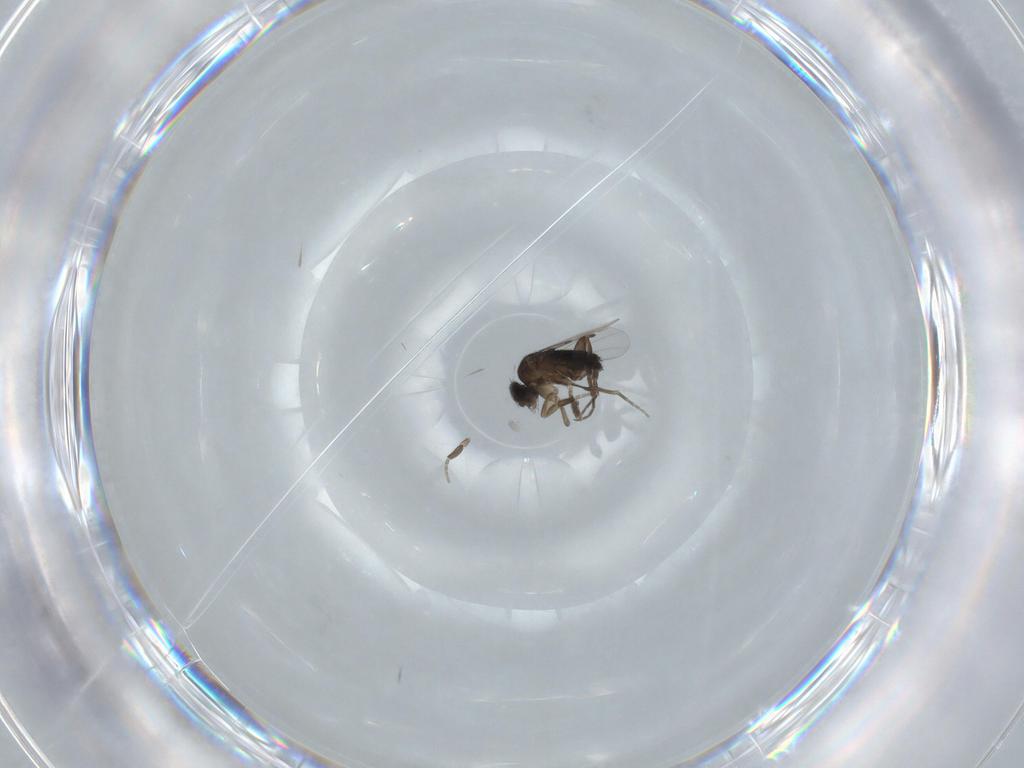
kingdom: Animalia
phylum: Arthropoda
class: Insecta
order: Diptera
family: Phoridae
